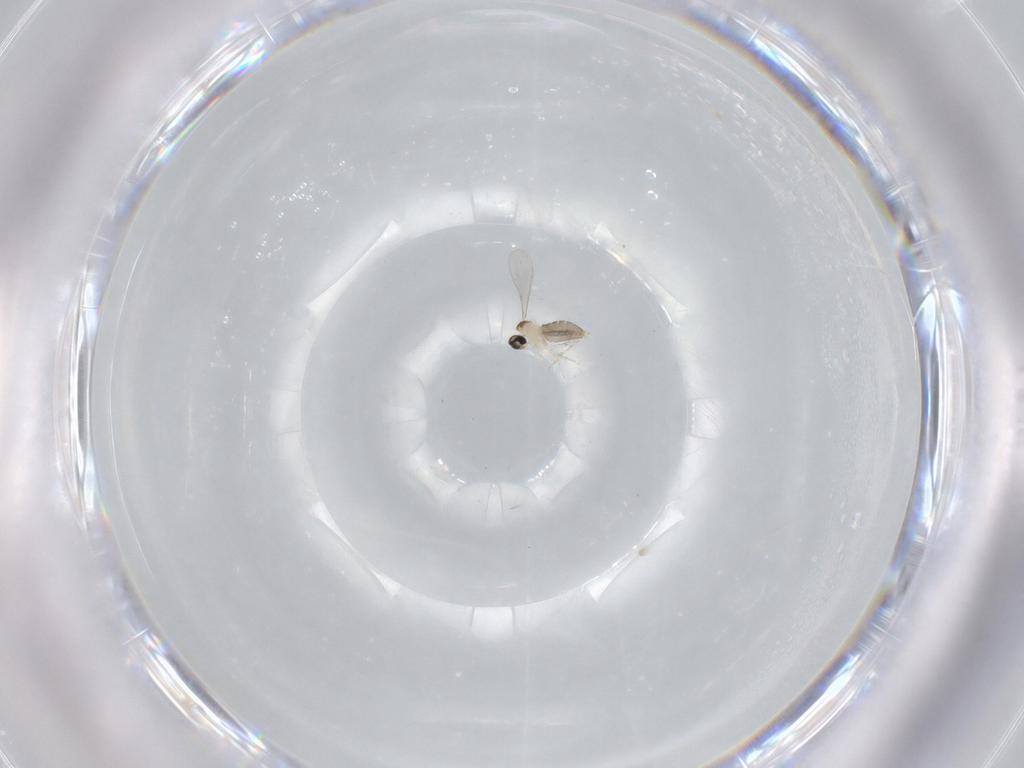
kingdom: Animalia
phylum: Arthropoda
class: Insecta
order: Diptera
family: Cecidomyiidae
